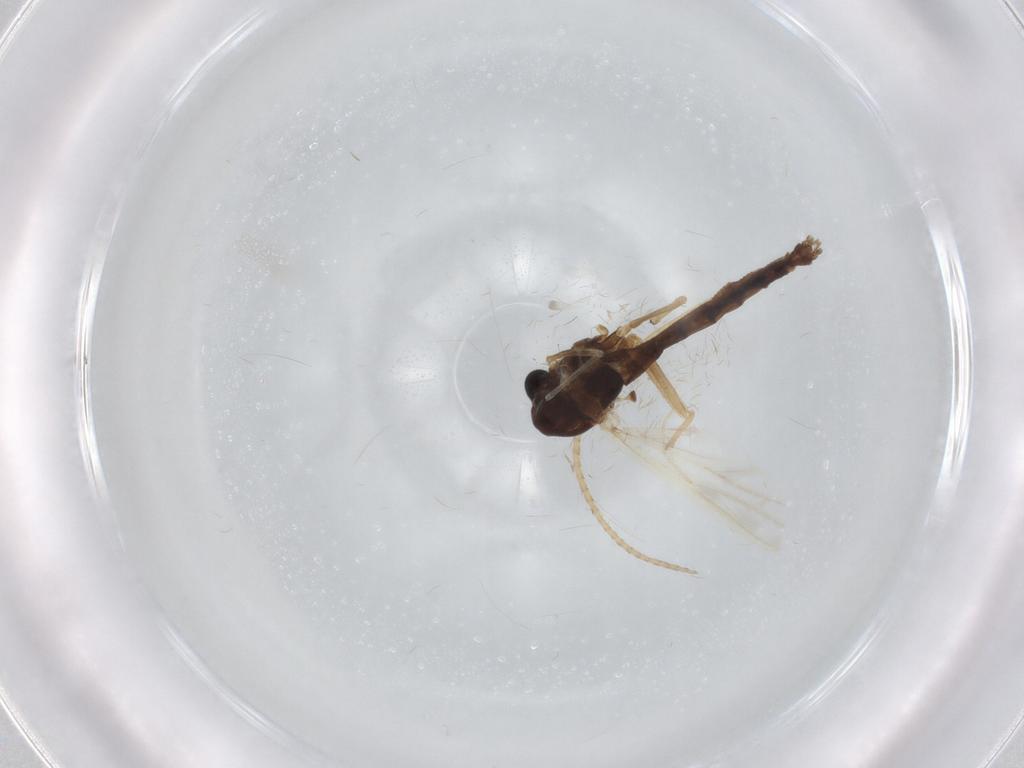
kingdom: Animalia
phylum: Arthropoda
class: Insecta
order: Diptera
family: Chironomidae
